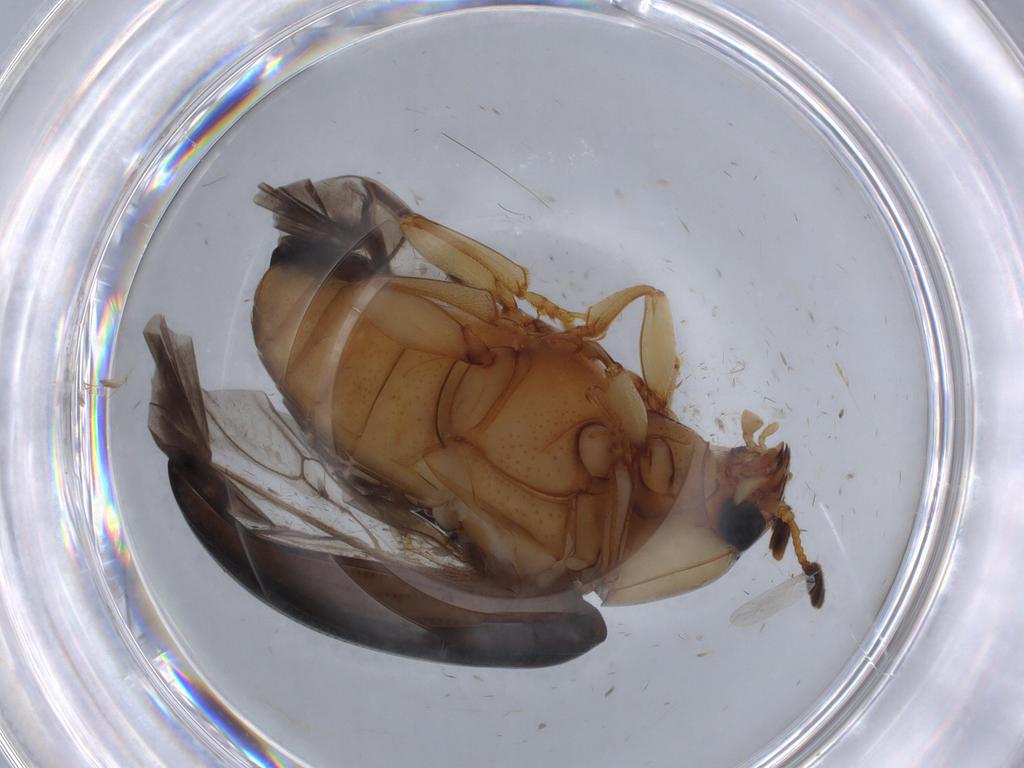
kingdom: Animalia
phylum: Arthropoda
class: Insecta
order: Coleoptera
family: Erotylidae
